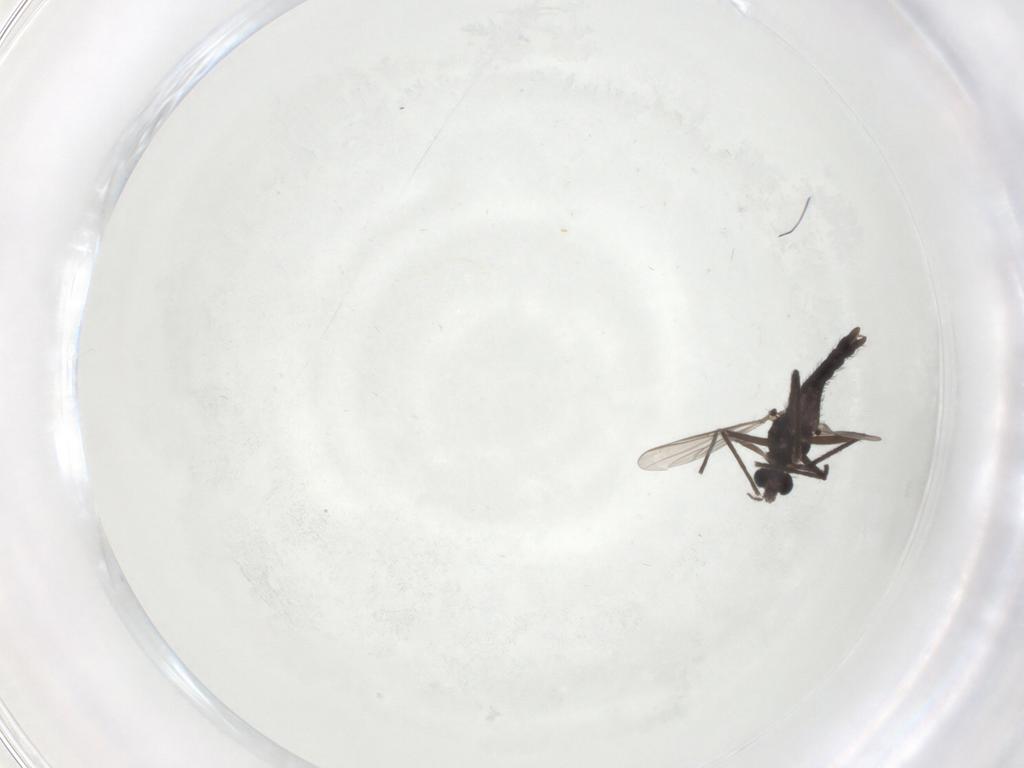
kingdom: Animalia
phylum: Arthropoda
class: Insecta
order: Diptera
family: Chironomidae
